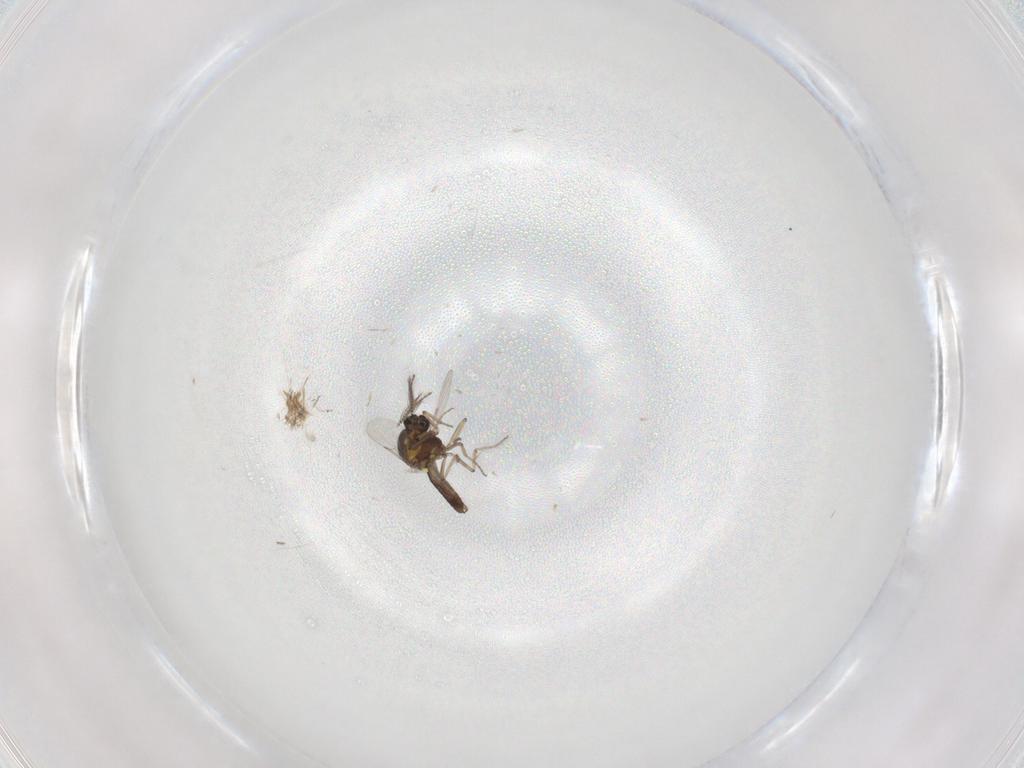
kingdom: Animalia
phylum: Arthropoda
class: Insecta
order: Diptera
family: Ceratopogonidae
